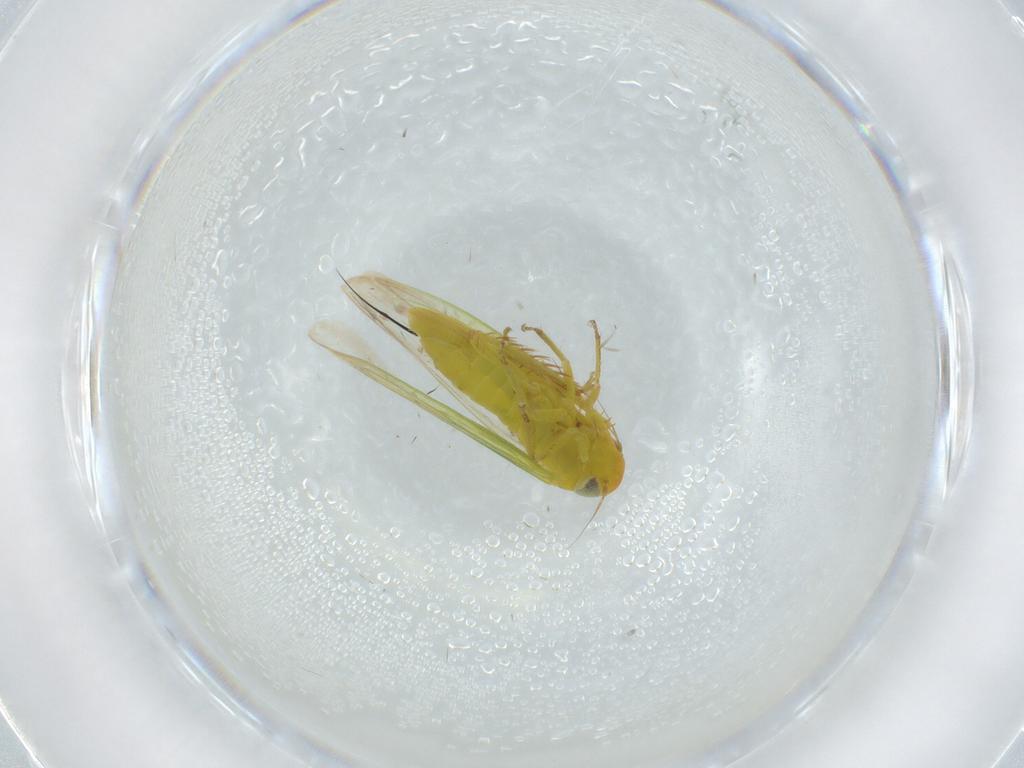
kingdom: Animalia
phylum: Arthropoda
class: Insecta
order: Hemiptera
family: Cicadellidae
